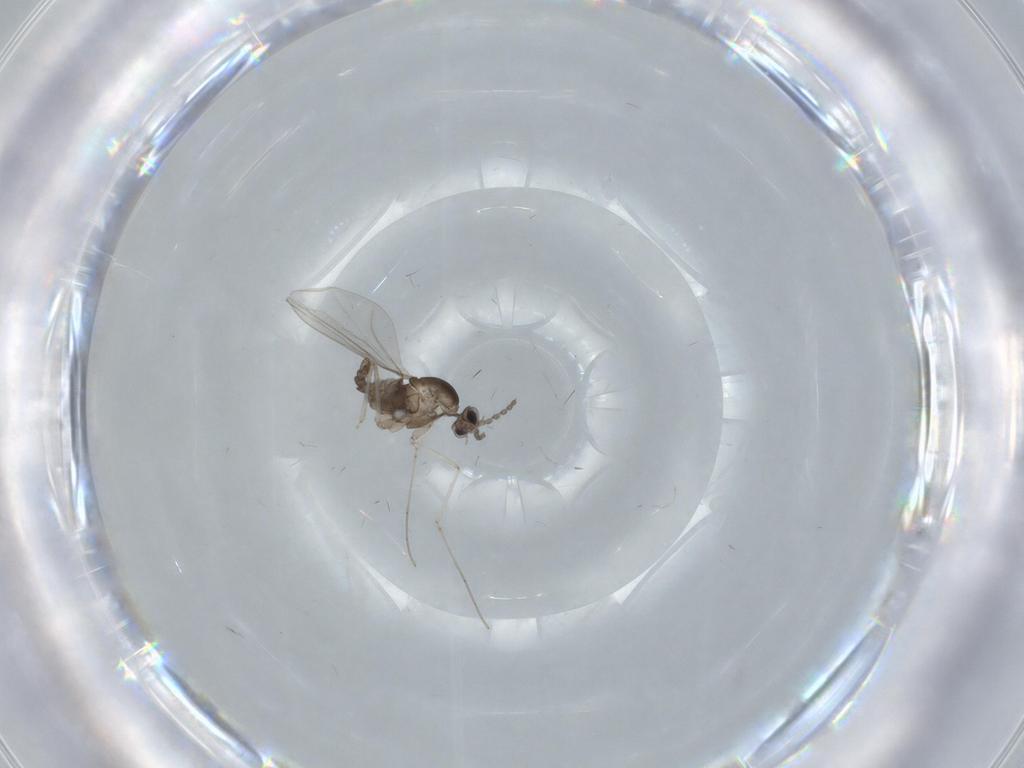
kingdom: Animalia
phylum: Arthropoda
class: Insecta
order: Diptera
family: Cecidomyiidae
